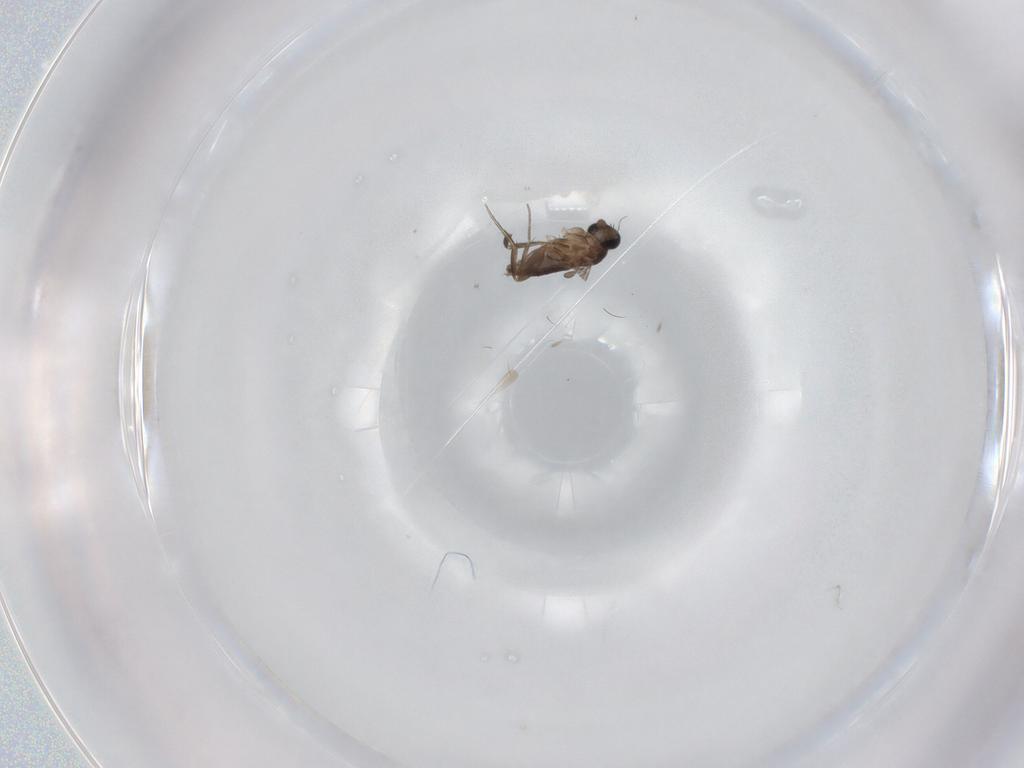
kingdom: Animalia
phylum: Arthropoda
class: Insecta
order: Diptera
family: Phoridae
